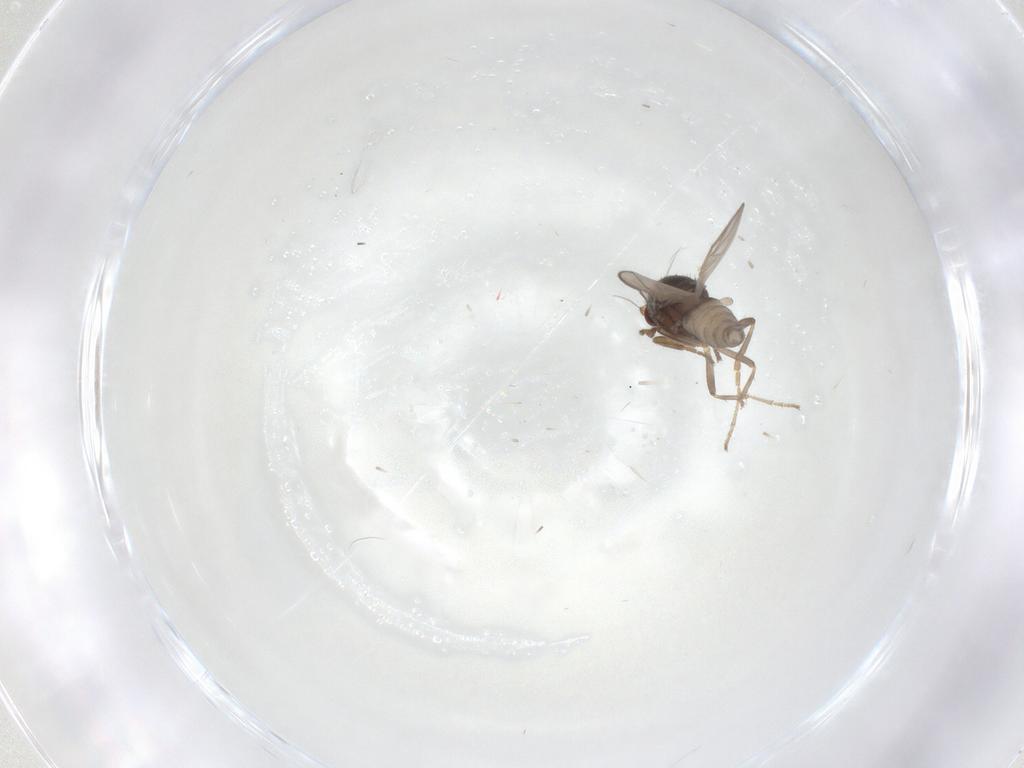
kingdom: Animalia
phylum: Arthropoda
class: Insecta
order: Diptera
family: Sphaeroceridae
